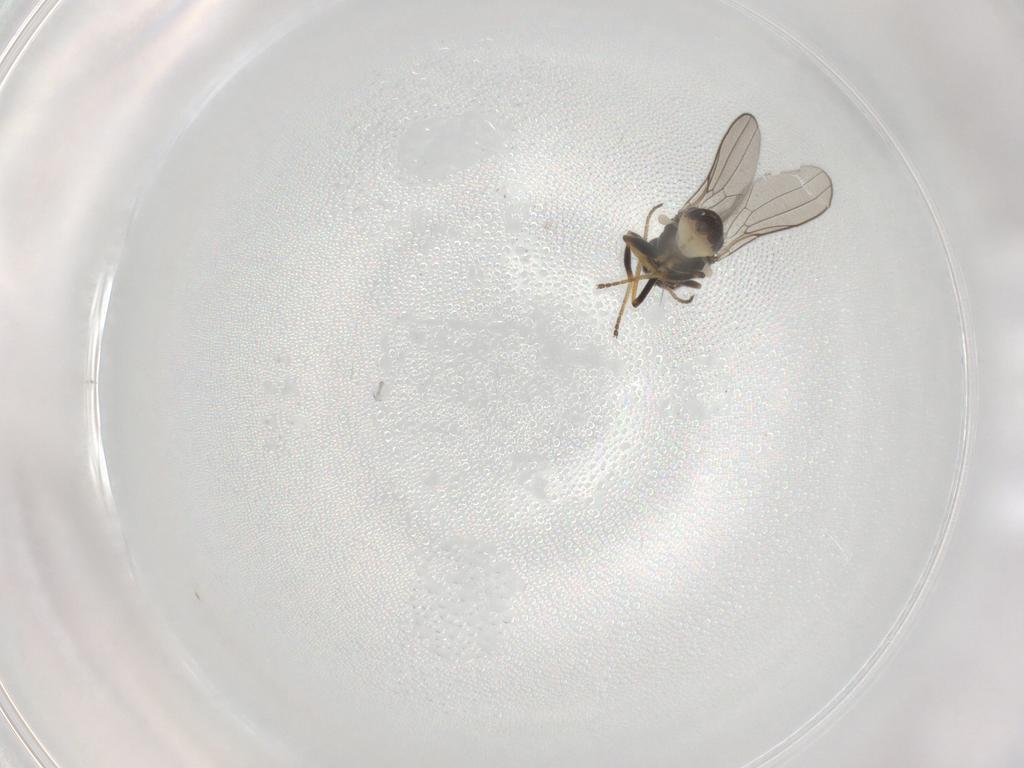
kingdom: Animalia
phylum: Arthropoda
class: Insecta
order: Diptera
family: Chloropidae
